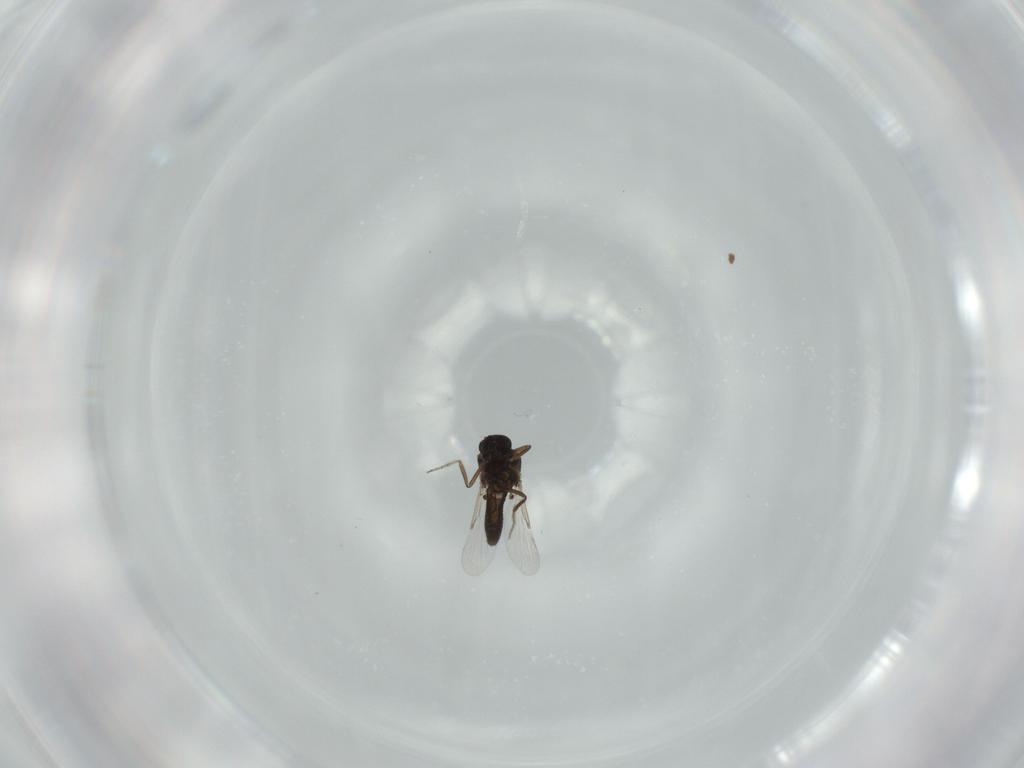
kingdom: Animalia
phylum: Arthropoda
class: Insecta
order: Diptera
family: Ceratopogonidae
